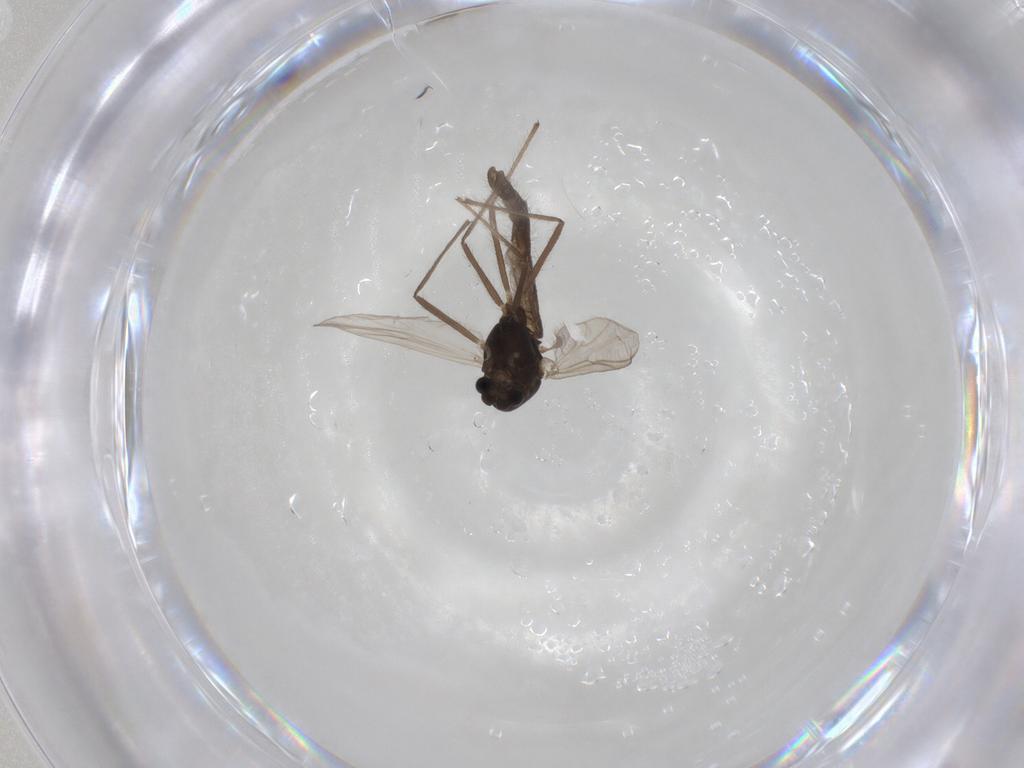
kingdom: Animalia
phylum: Arthropoda
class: Insecta
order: Diptera
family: Chironomidae
